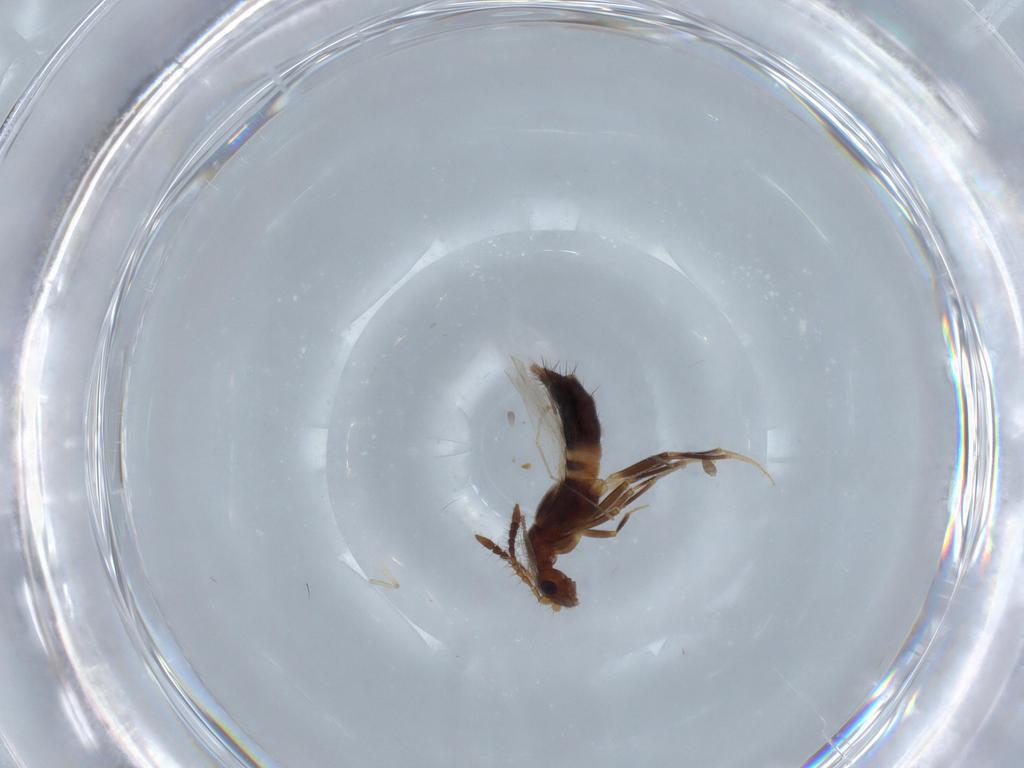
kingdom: Animalia
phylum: Arthropoda
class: Insecta
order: Coleoptera
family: Staphylinidae
